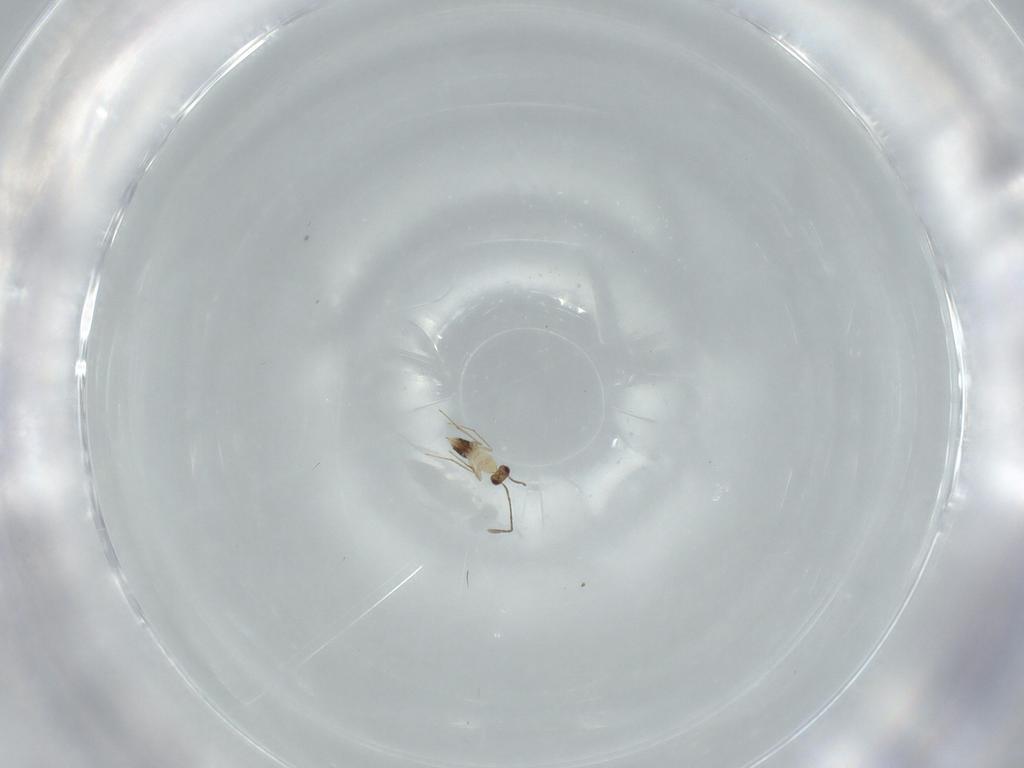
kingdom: Animalia
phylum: Arthropoda
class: Insecta
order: Hymenoptera
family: Mymaridae
